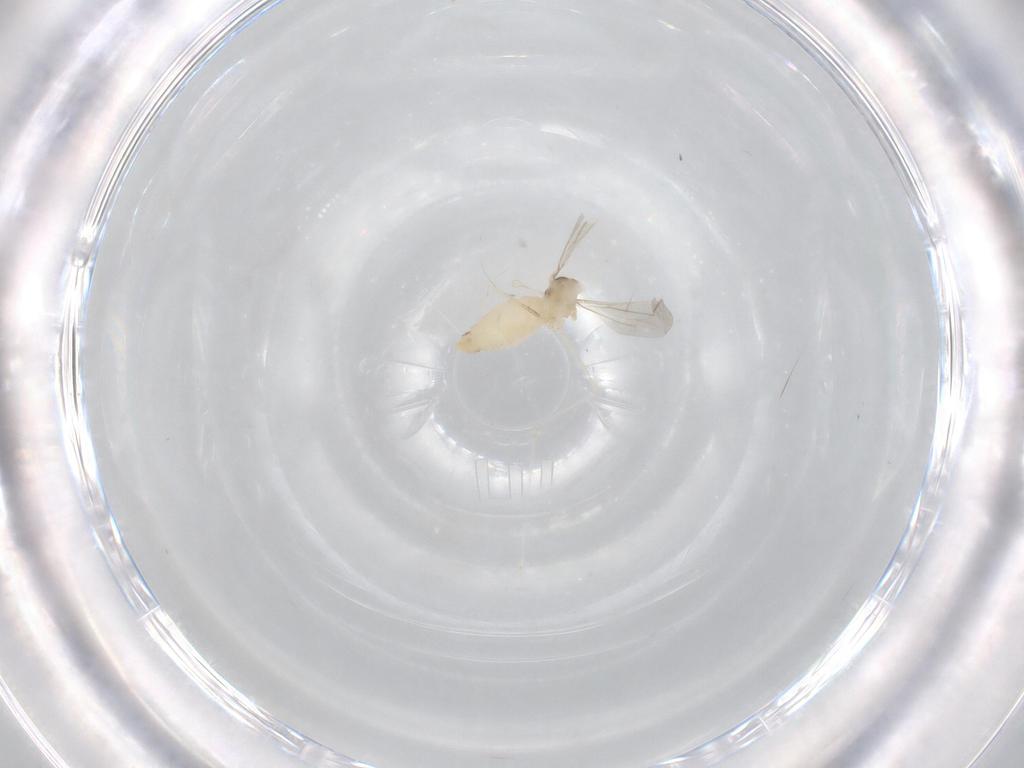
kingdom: Animalia
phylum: Arthropoda
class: Insecta
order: Diptera
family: Cecidomyiidae
